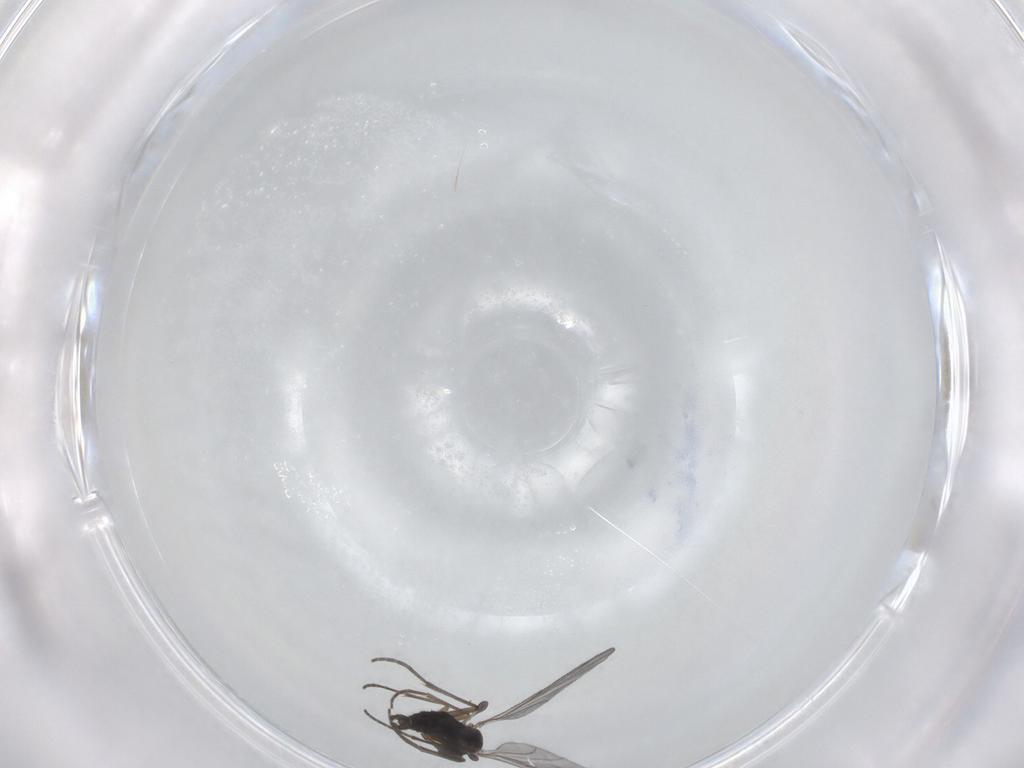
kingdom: Animalia
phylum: Arthropoda
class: Insecta
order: Diptera
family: Sciaridae
